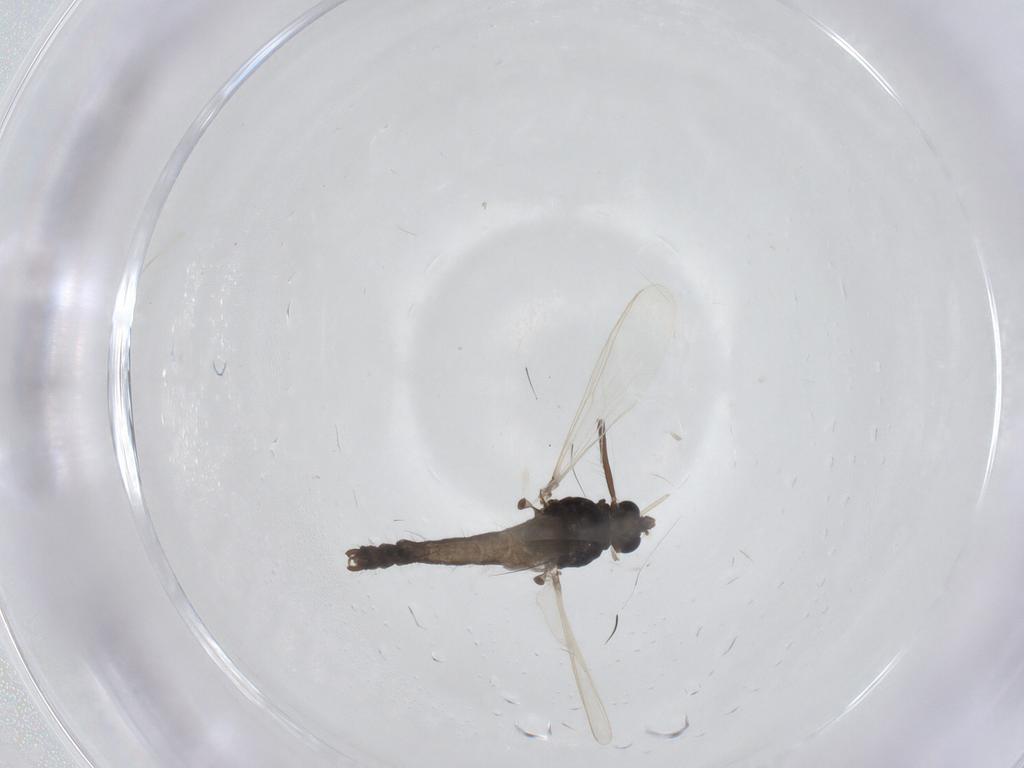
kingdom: Animalia
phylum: Arthropoda
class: Insecta
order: Diptera
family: Chironomidae
